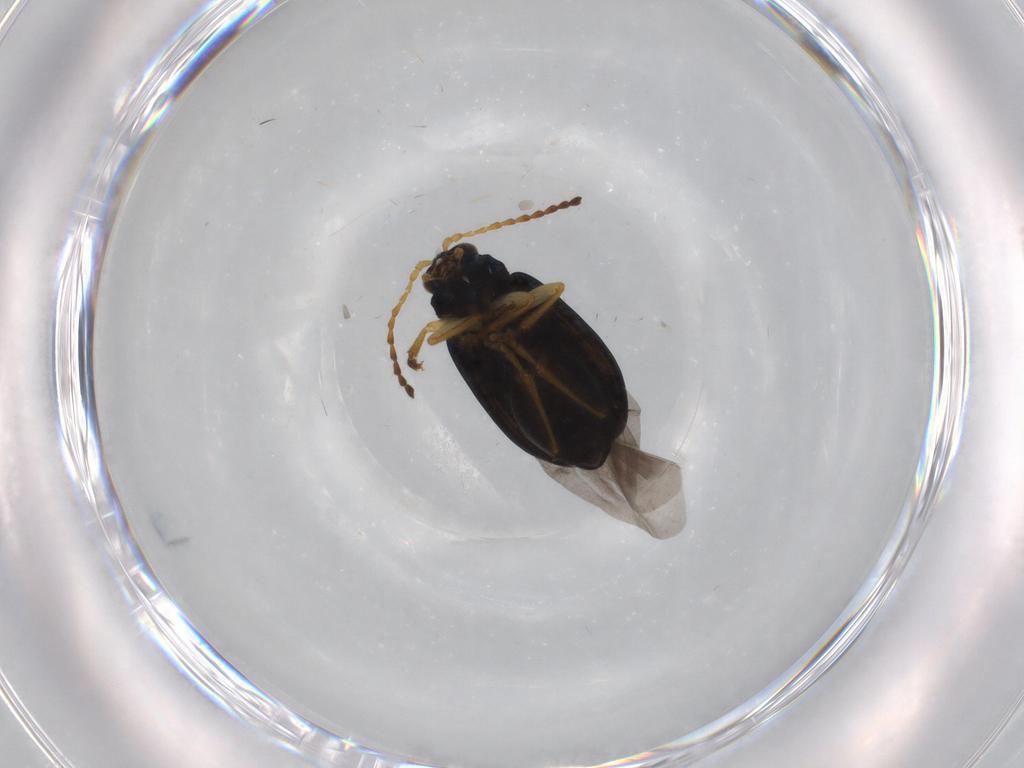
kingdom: Animalia
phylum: Arthropoda
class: Insecta
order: Coleoptera
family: Chrysomelidae
